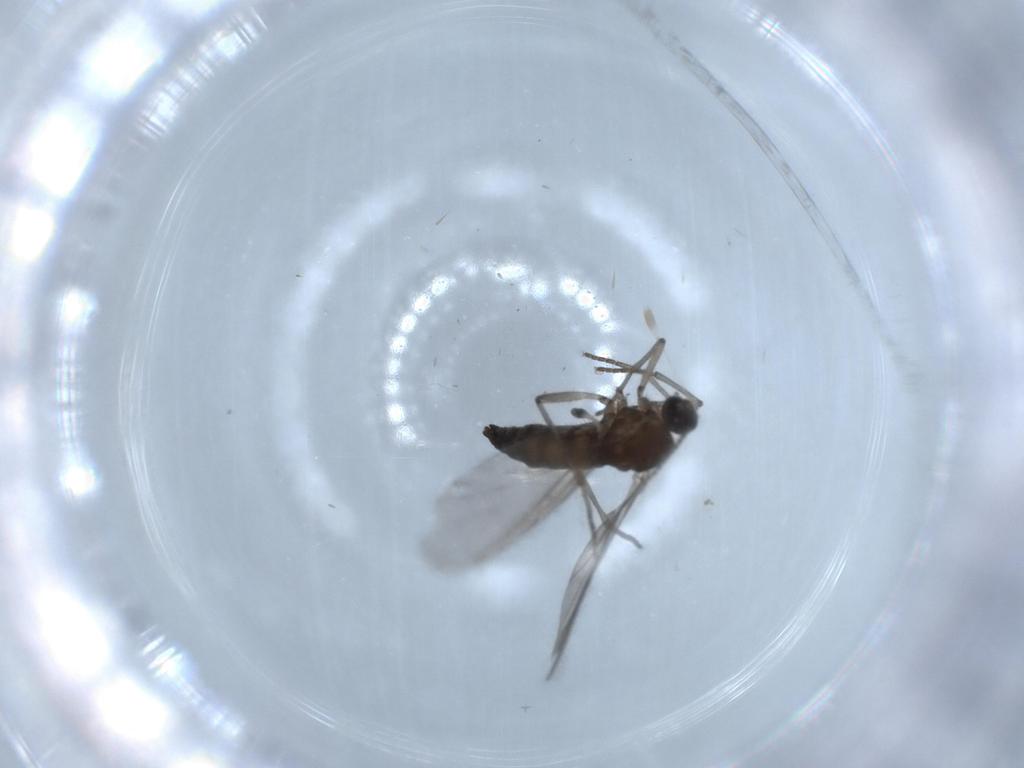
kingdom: Animalia
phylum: Arthropoda
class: Insecta
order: Diptera
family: Sciaridae
